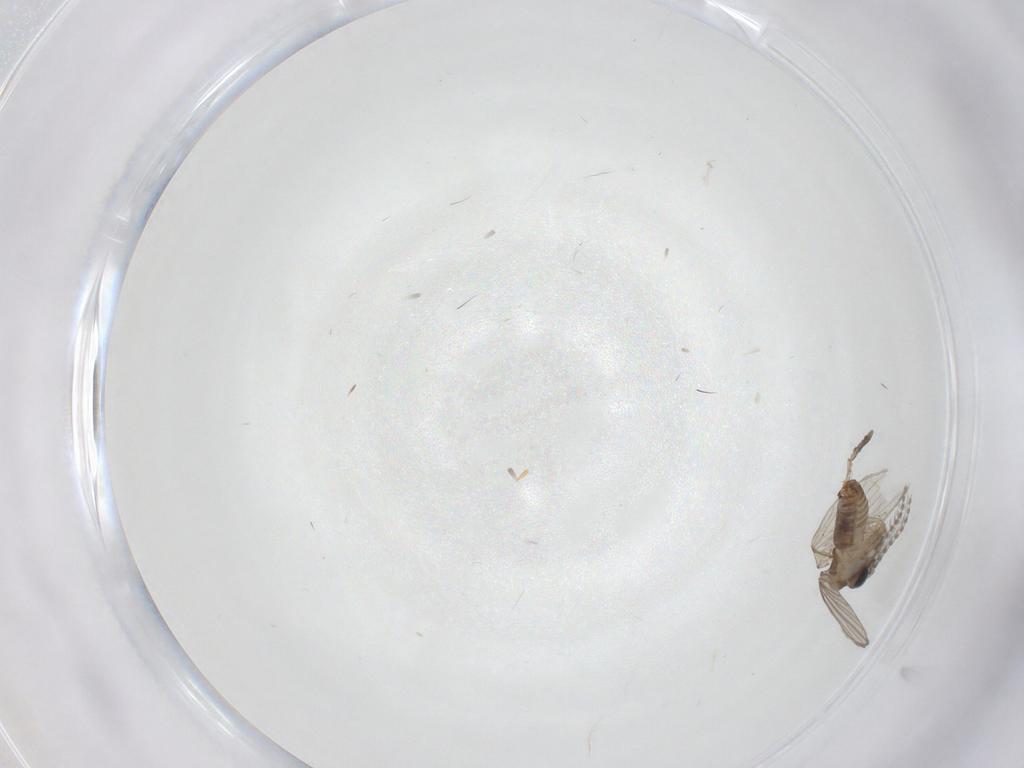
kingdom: Animalia
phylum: Arthropoda
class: Insecta
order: Diptera
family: Psychodidae
